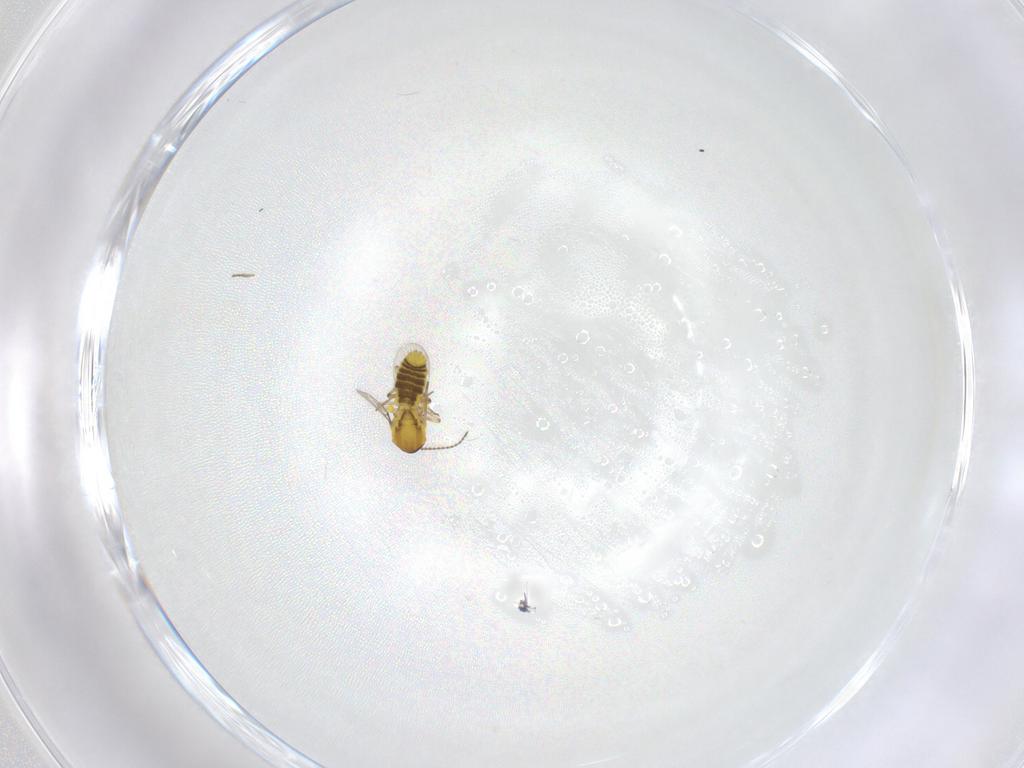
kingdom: Animalia
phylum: Arthropoda
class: Insecta
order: Diptera
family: Ceratopogonidae
